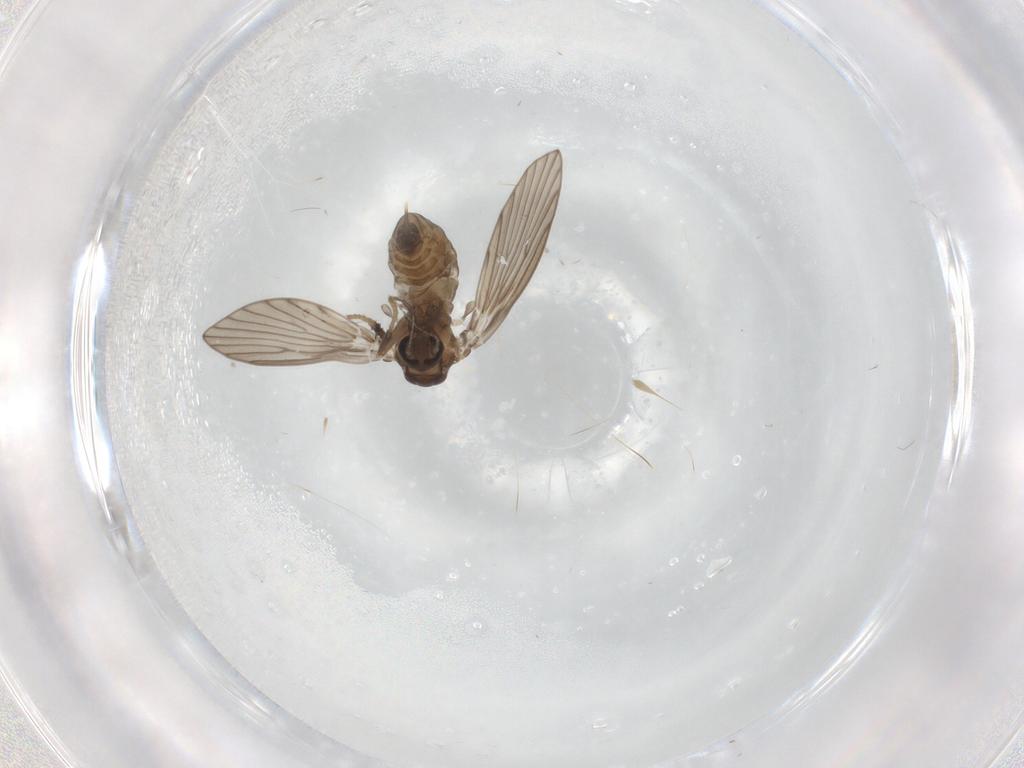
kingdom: Animalia
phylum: Arthropoda
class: Insecta
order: Diptera
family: Psychodidae
